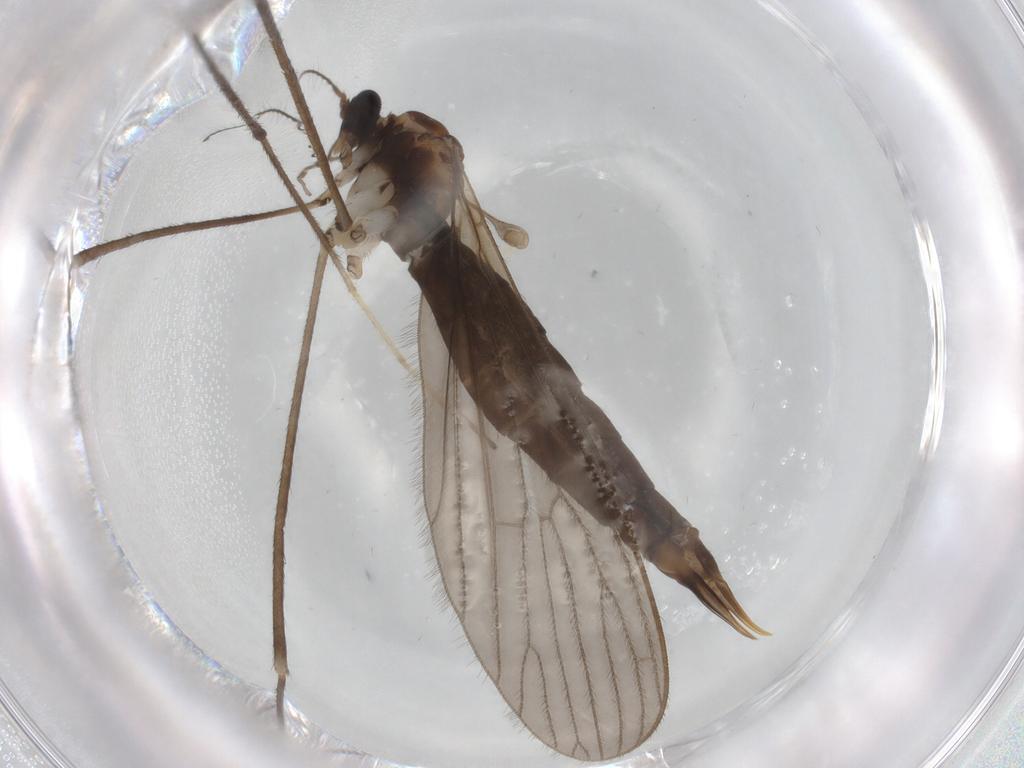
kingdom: Animalia
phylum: Arthropoda
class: Insecta
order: Diptera
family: Limoniidae
